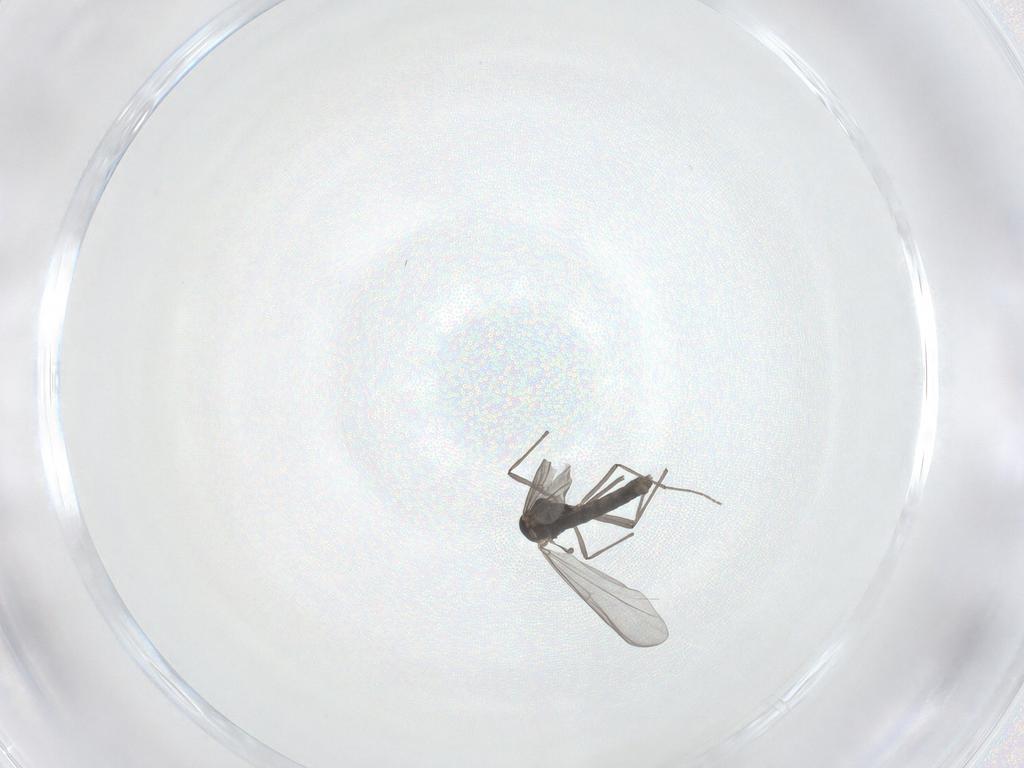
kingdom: Animalia
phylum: Arthropoda
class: Insecta
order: Diptera
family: Chironomidae
